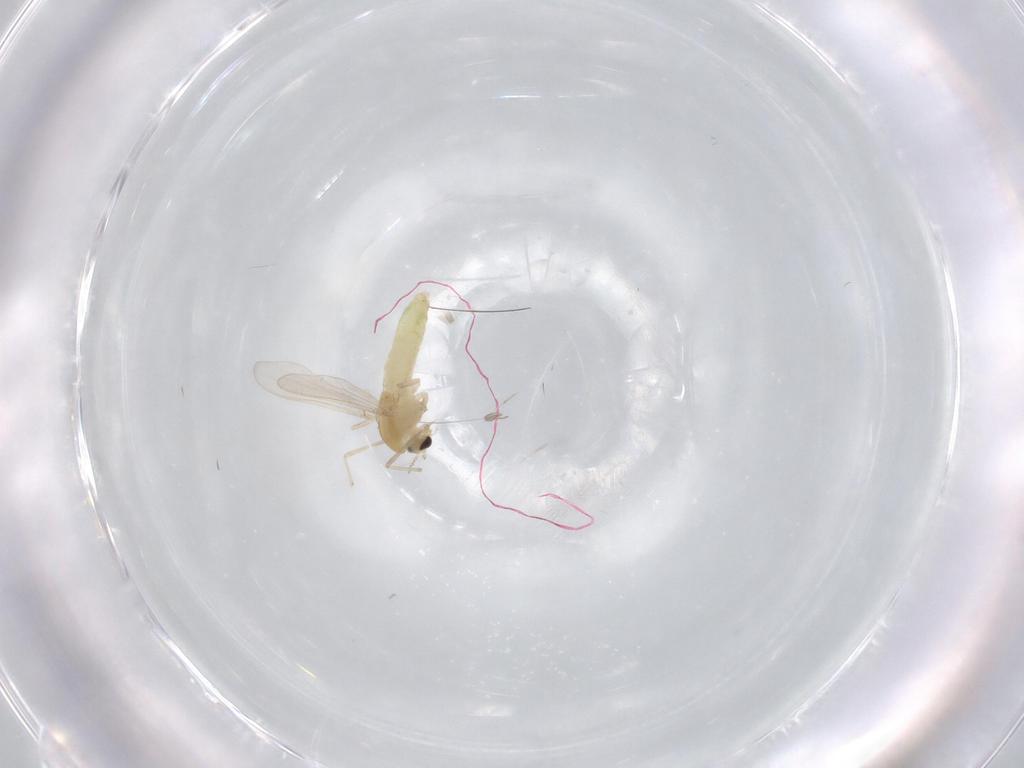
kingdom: Animalia
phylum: Arthropoda
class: Insecta
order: Diptera
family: Chironomidae
